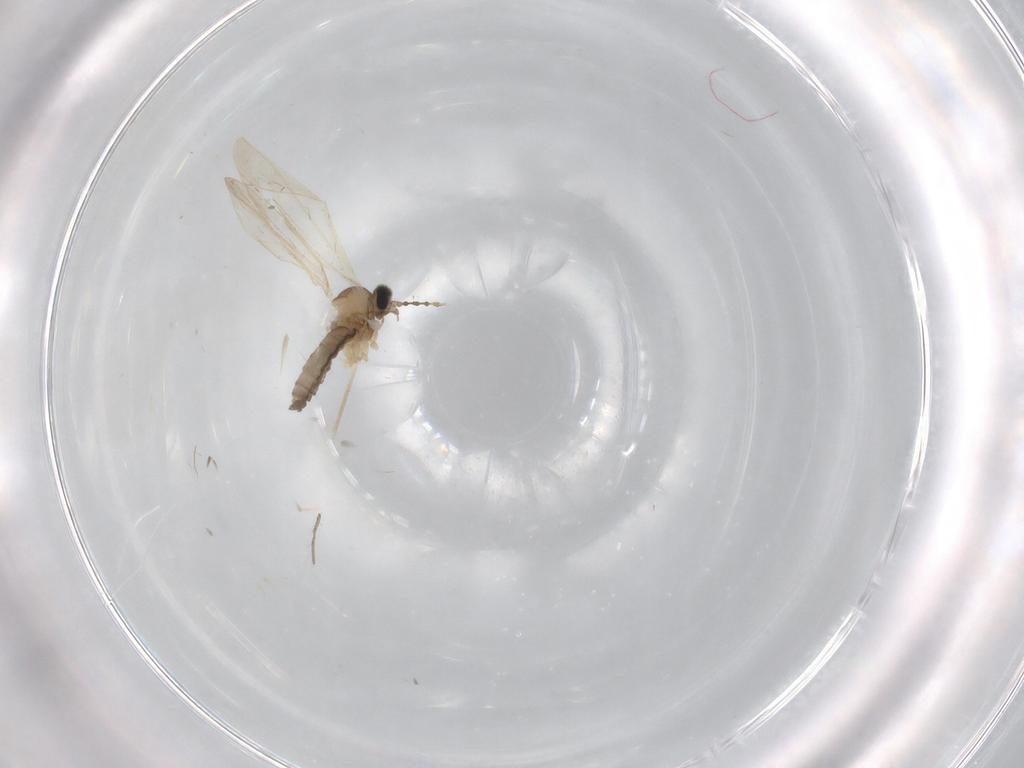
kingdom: Animalia
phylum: Arthropoda
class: Insecta
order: Diptera
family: Cecidomyiidae
